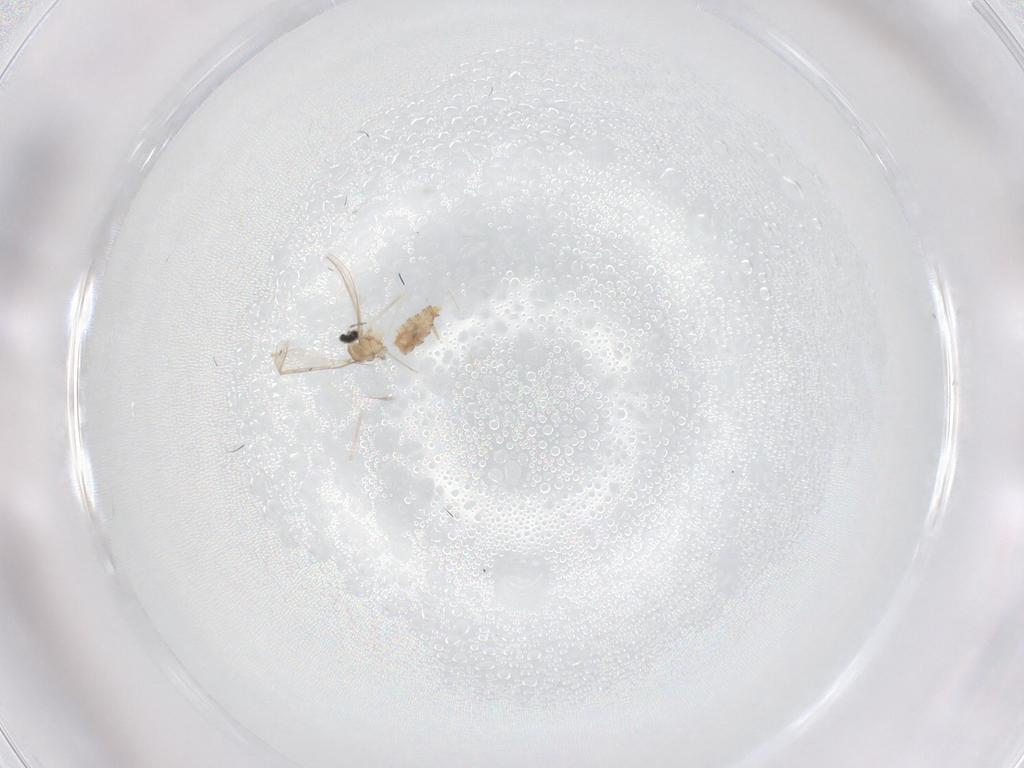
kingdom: Animalia
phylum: Arthropoda
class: Insecta
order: Diptera
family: Cecidomyiidae
